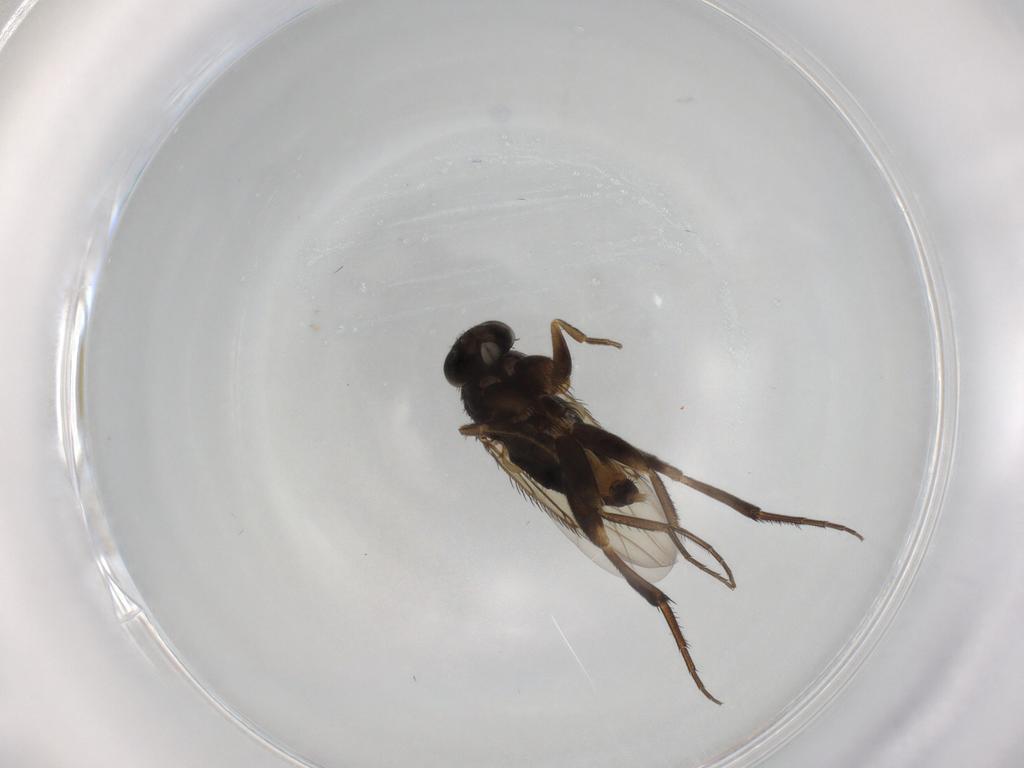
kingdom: Animalia
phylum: Arthropoda
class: Insecta
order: Diptera
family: Phoridae
